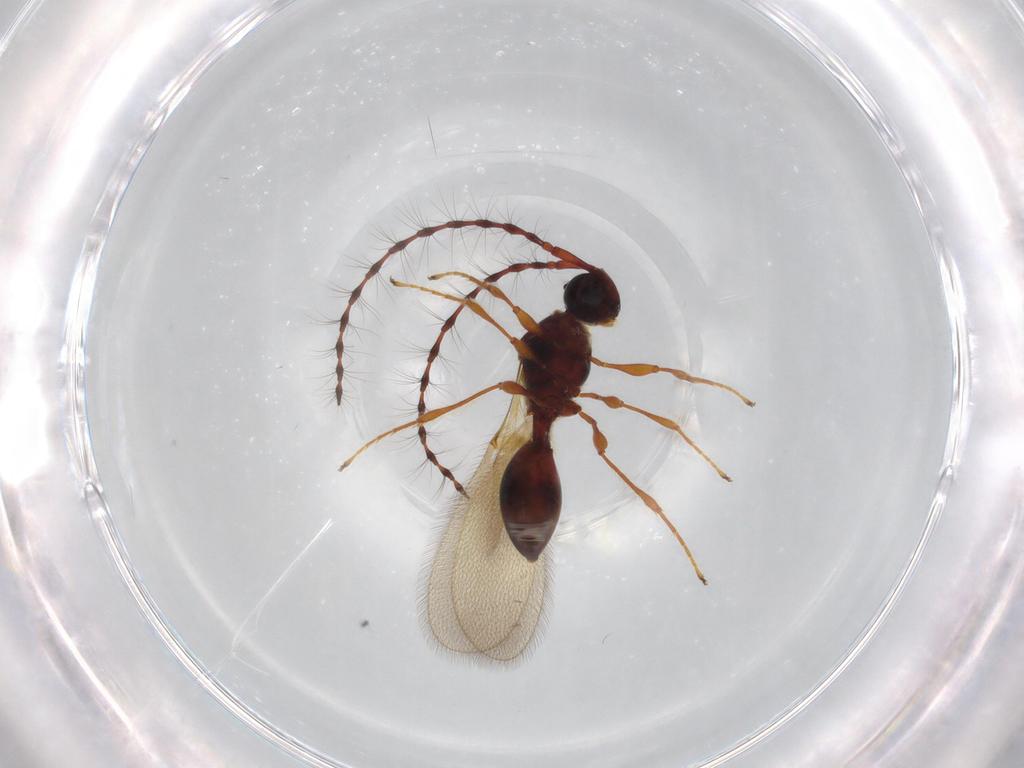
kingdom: Animalia
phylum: Arthropoda
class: Insecta
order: Hymenoptera
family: Diapriidae
